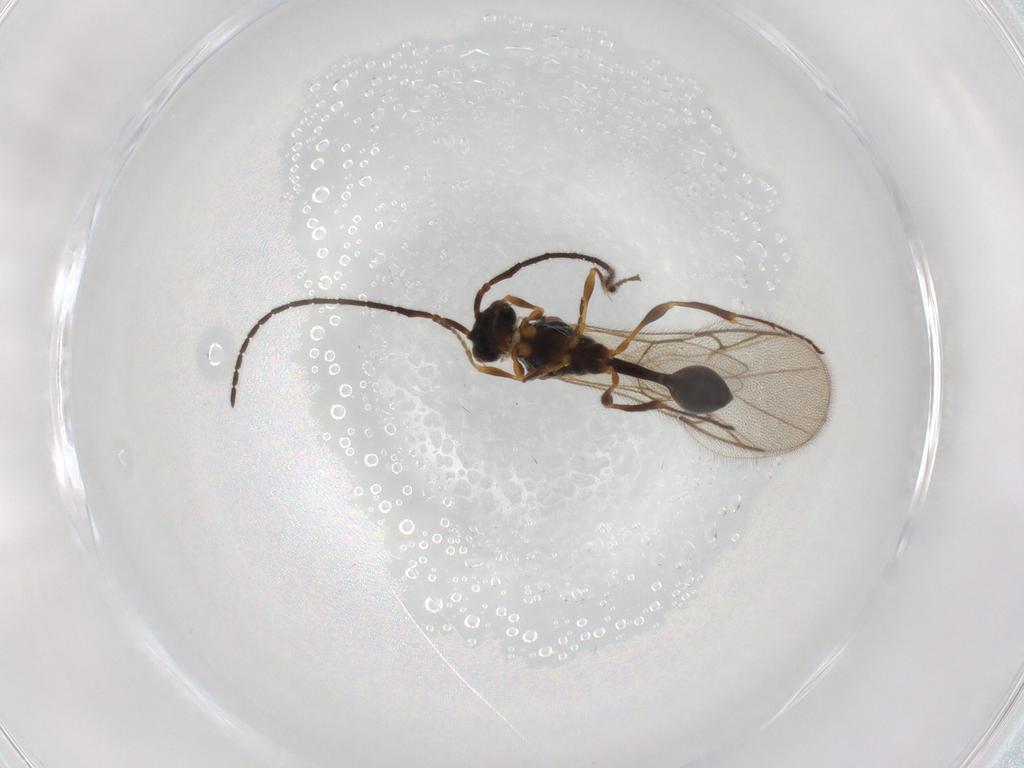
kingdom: Animalia
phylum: Arthropoda
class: Insecta
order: Hymenoptera
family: Diapriidae
